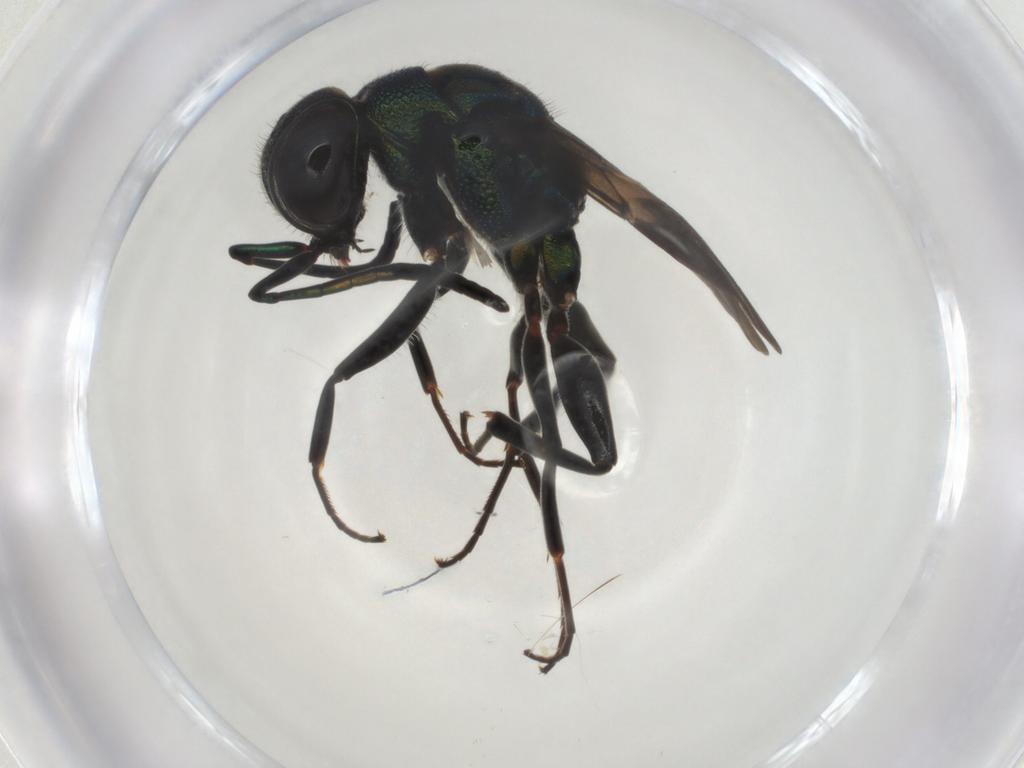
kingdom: Animalia
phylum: Arthropoda
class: Insecta
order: Hymenoptera
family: Chrysididae
